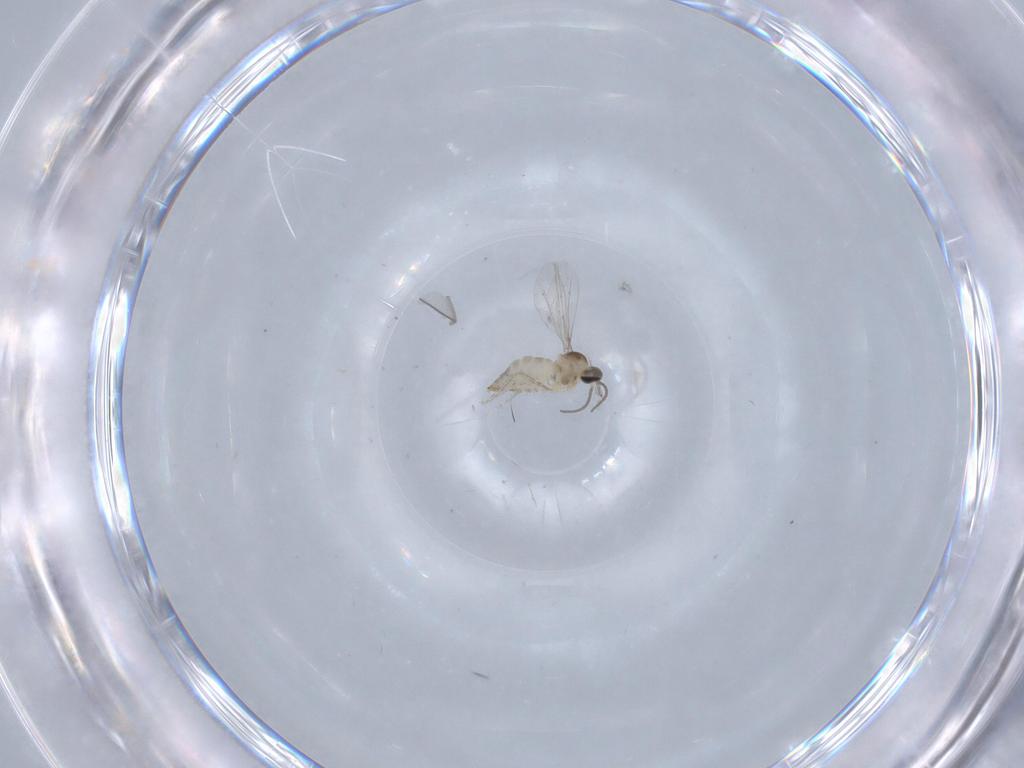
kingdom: Animalia
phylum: Arthropoda
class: Insecta
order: Diptera
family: Cecidomyiidae
